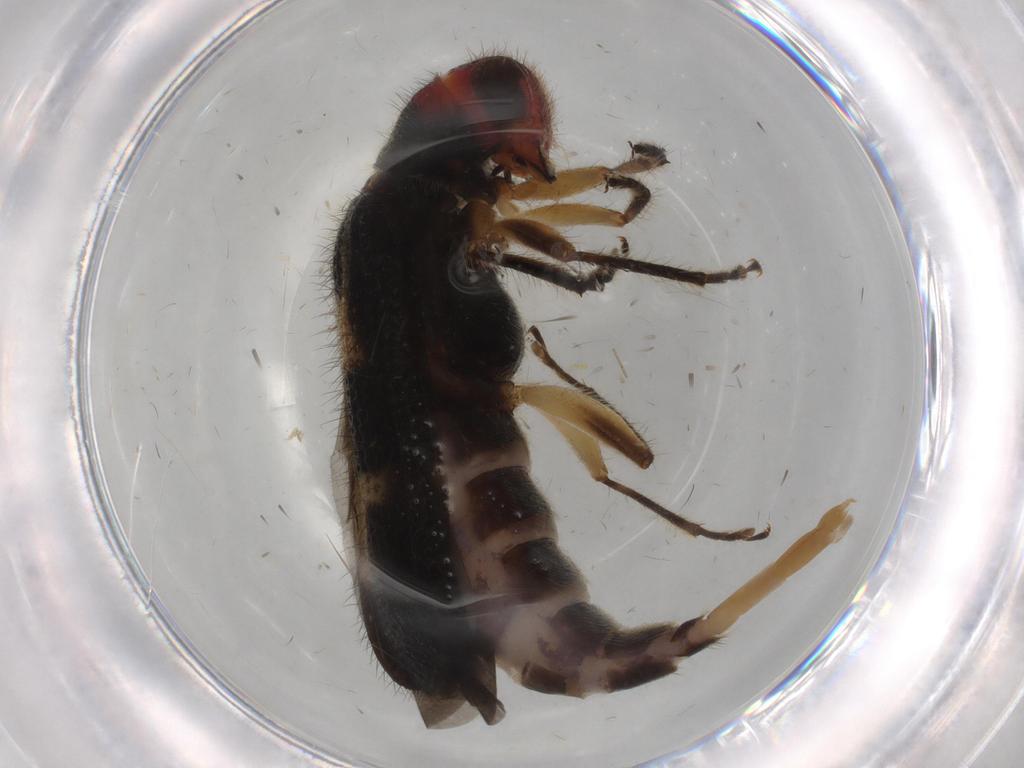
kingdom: Animalia
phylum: Arthropoda
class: Insecta
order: Coleoptera
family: Cleridae
